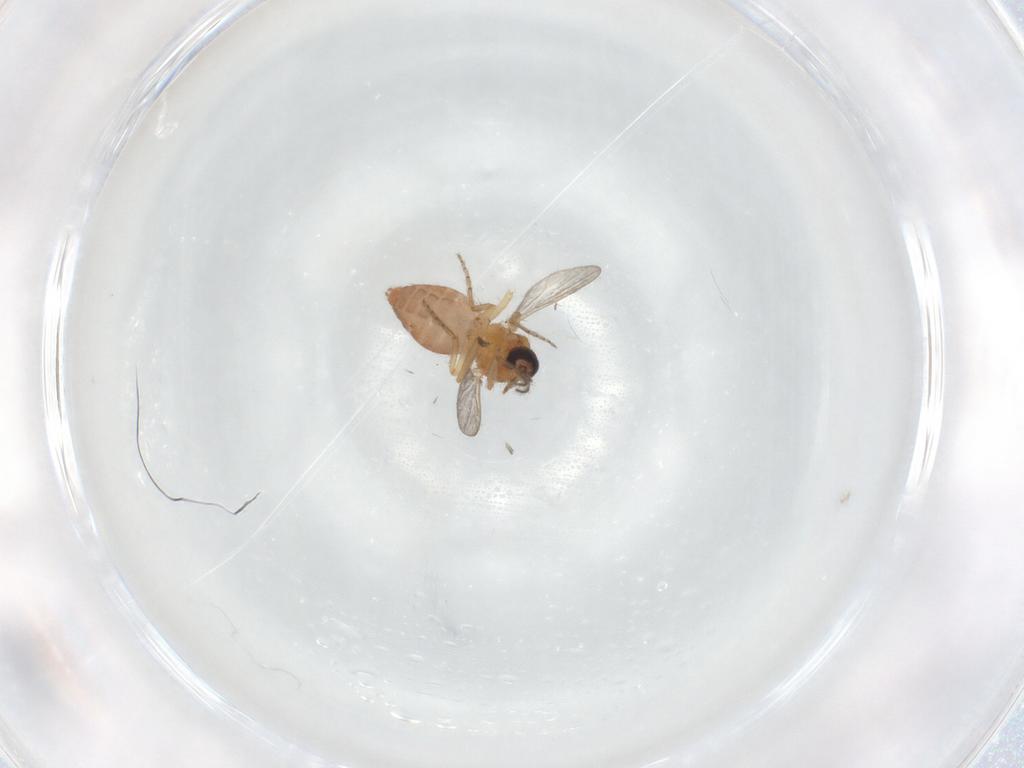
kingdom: Animalia
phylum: Arthropoda
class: Insecta
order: Diptera
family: Ceratopogonidae
